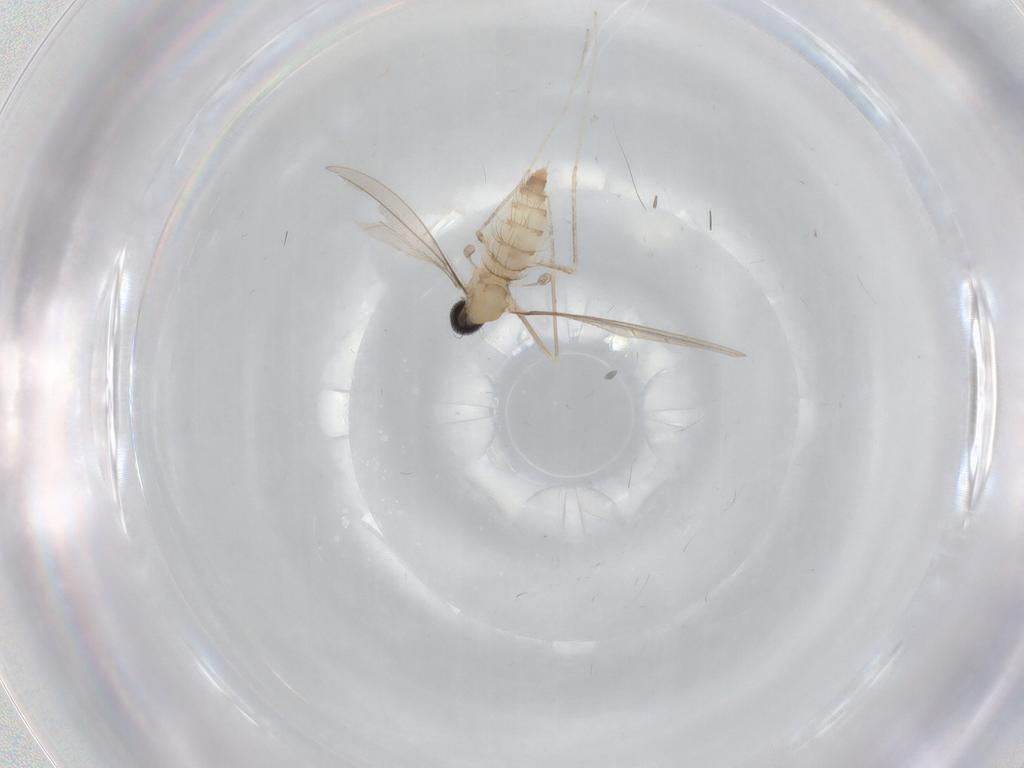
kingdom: Animalia
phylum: Arthropoda
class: Insecta
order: Diptera
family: Cecidomyiidae
